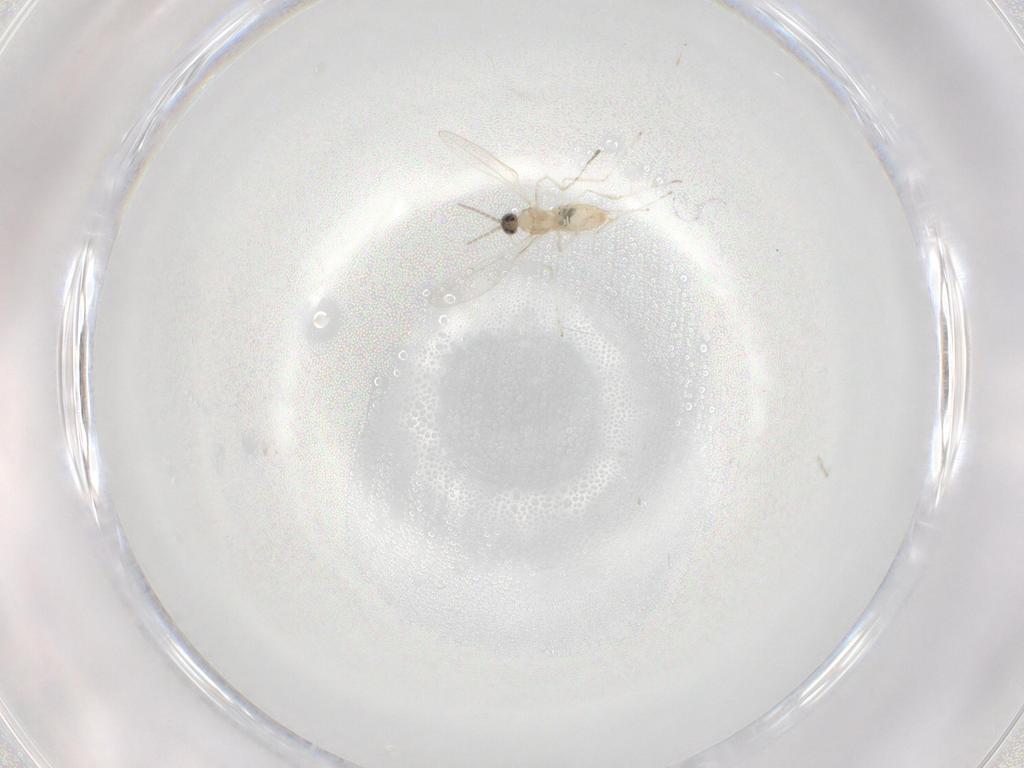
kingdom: Animalia
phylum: Arthropoda
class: Insecta
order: Diptera
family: Cecidomyiidae
